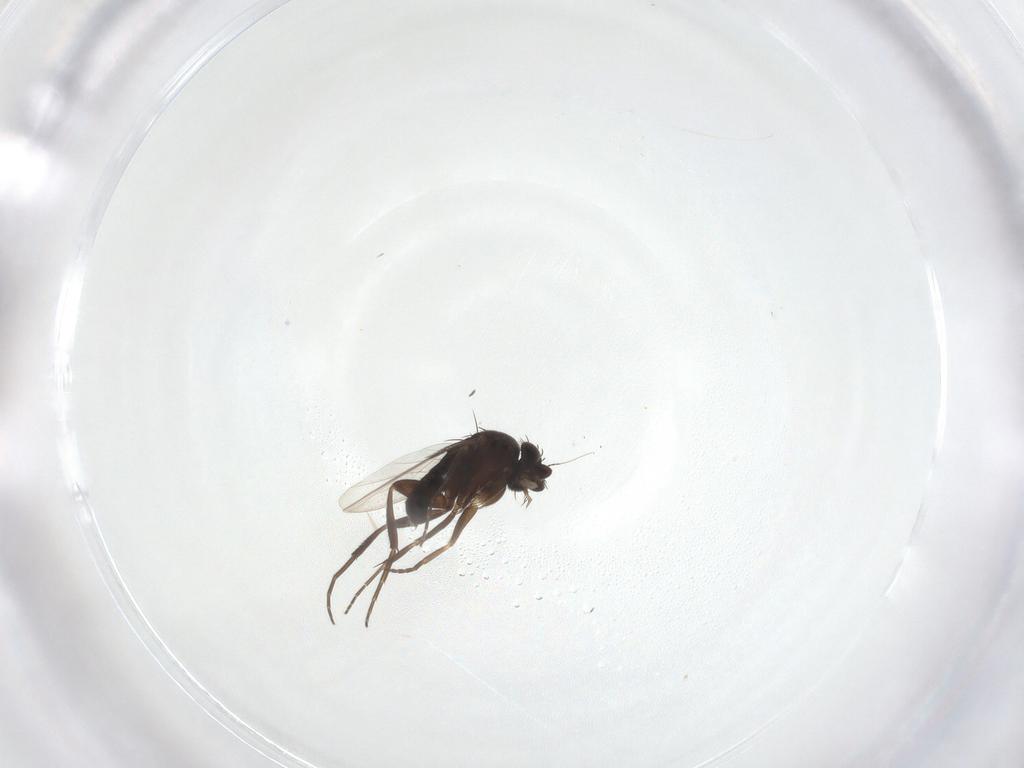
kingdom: Animalia
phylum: Arthropoda
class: Insecta
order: Diptera
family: Phoridae
